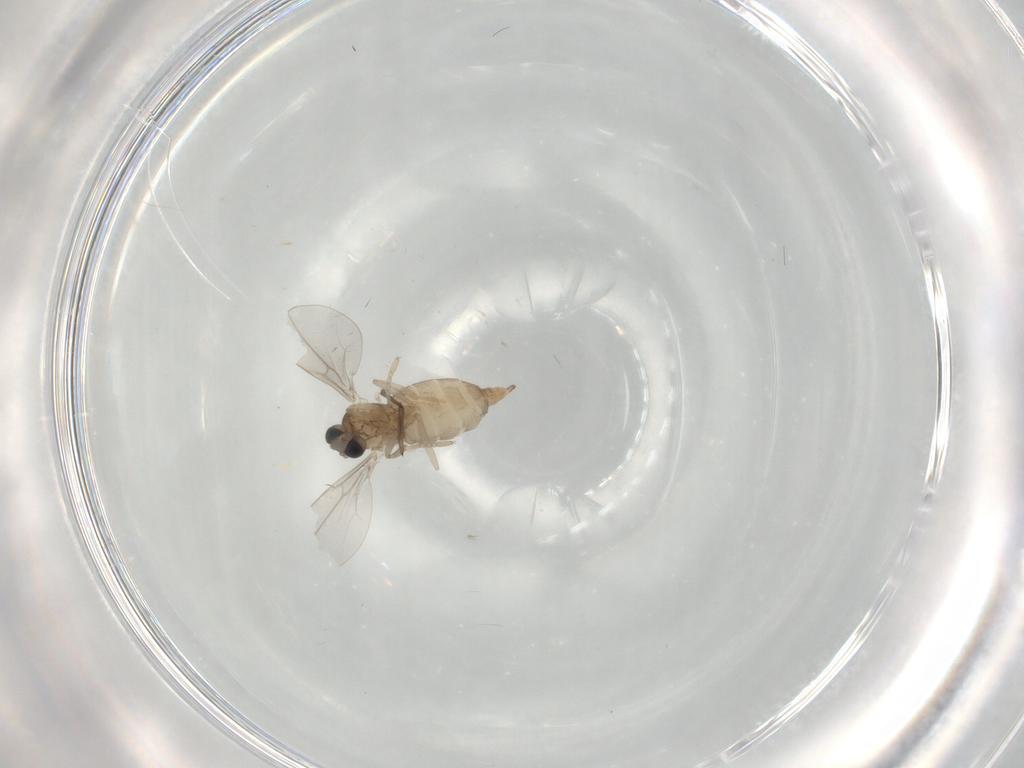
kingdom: Animalia
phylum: Arthropoda
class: Insecta
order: Diptera
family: Cecidomyiidae
